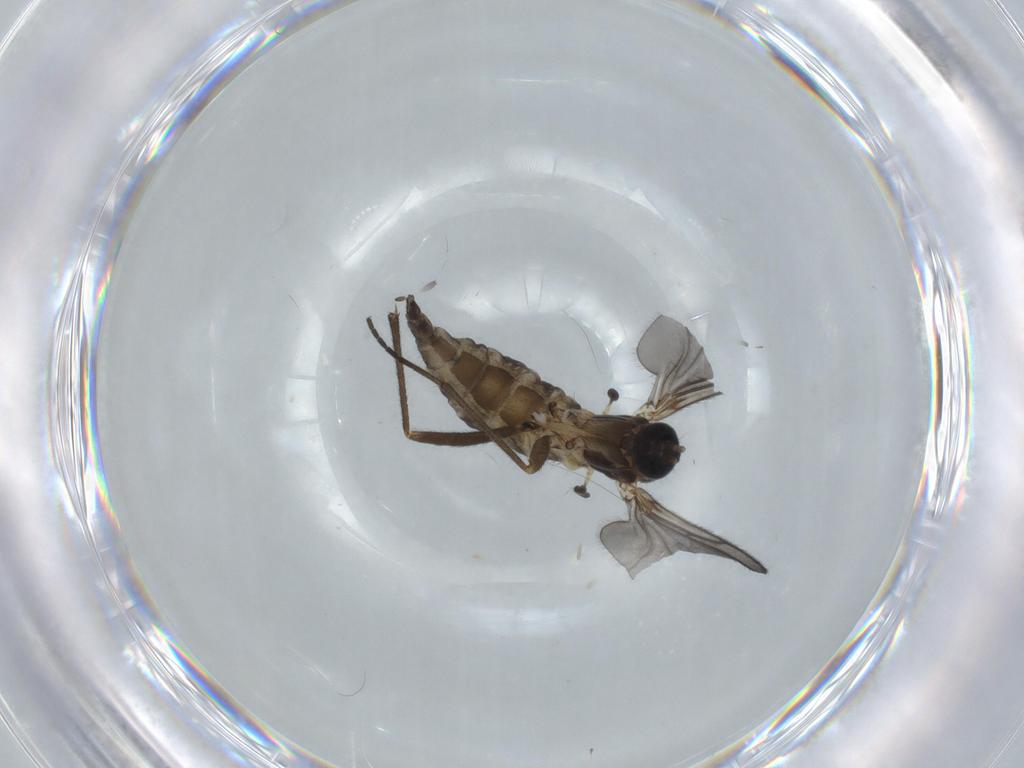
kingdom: Animalia
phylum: Arthropoda
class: Insecta
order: Diptera
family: Sciaridae
